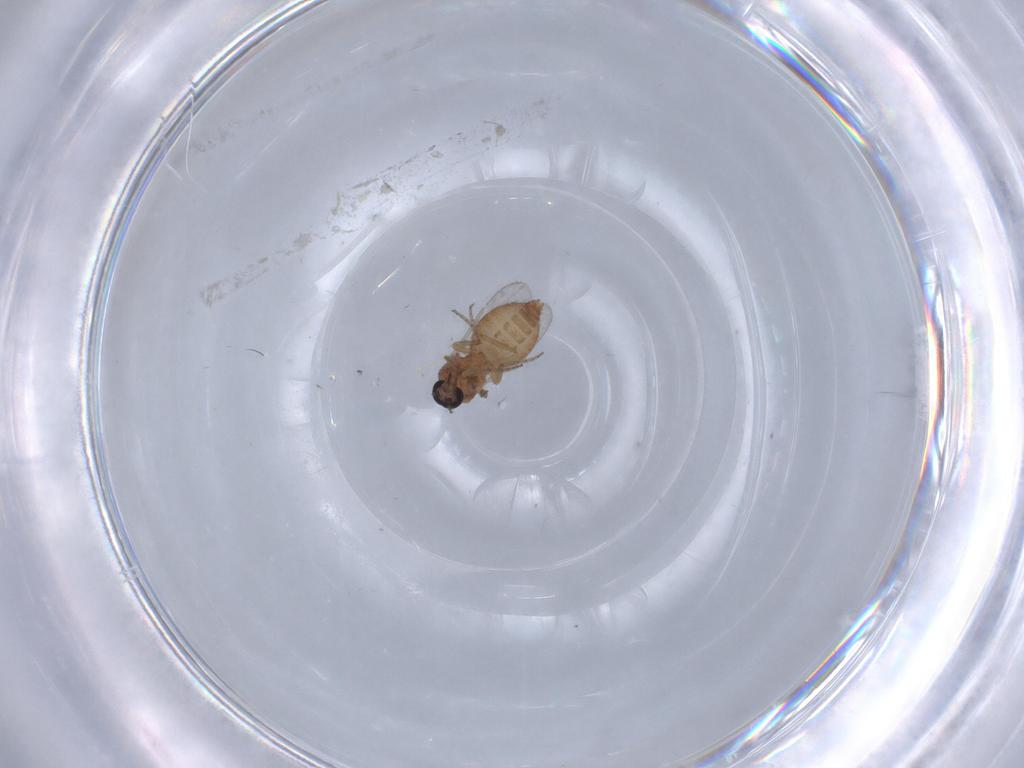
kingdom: Animalia
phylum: Arthropoda
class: Insecta
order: Diptera
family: Ceratopogonidae
